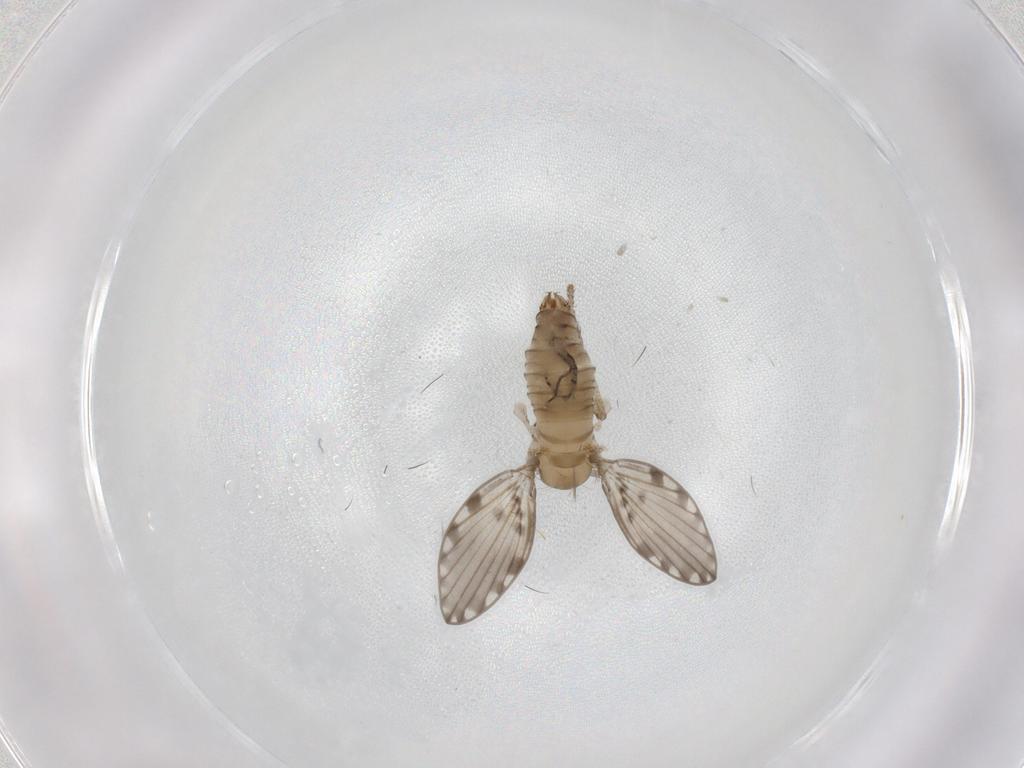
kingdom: Animalia
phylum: Arthropoda
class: Insecta
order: Diptera
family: Psychodidae
